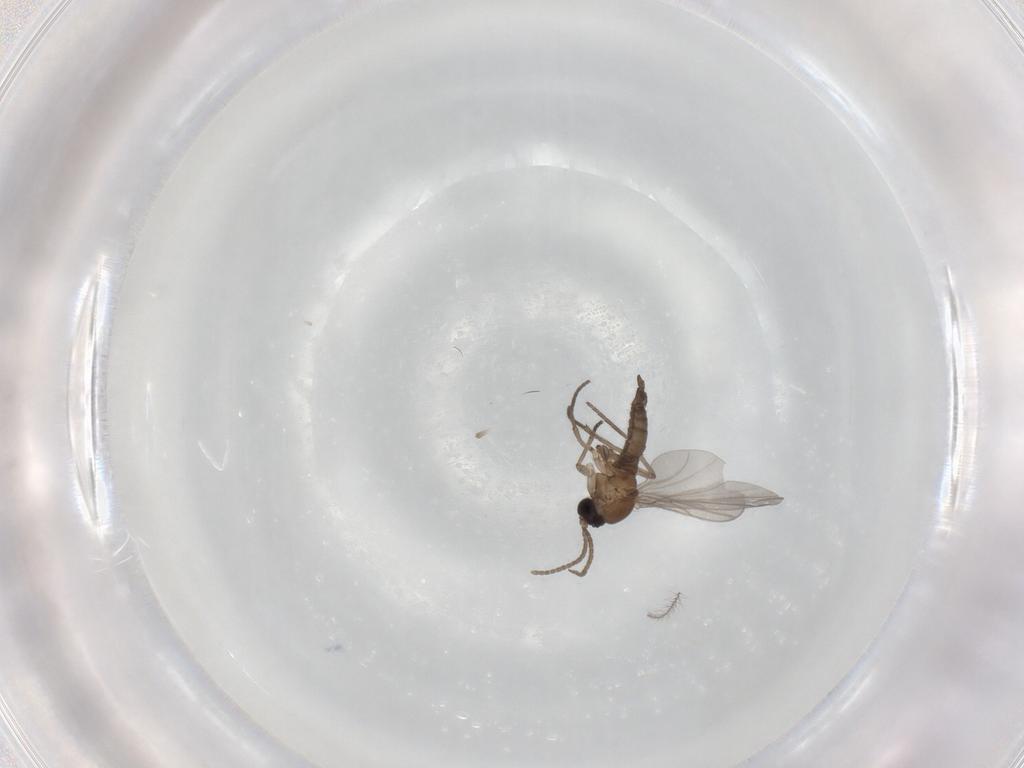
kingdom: Animalia
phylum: Arthropoda
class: Insecta
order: Diptera
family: Sciaridae
